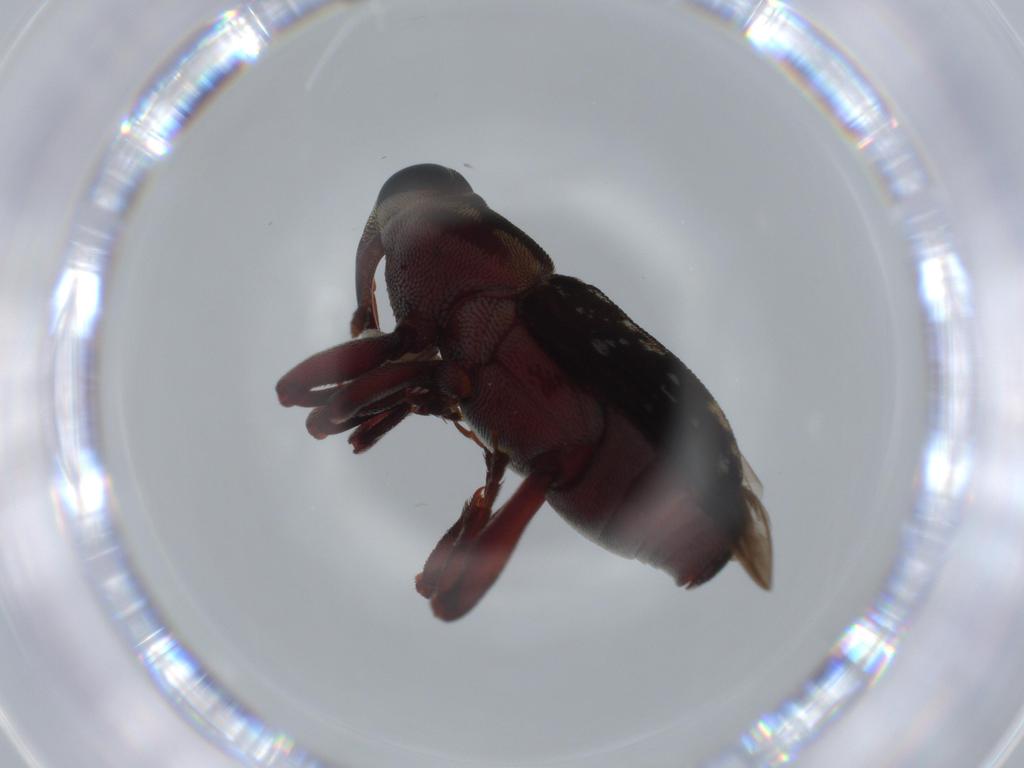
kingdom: Animalia
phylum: Arthropoda
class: Insecta
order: Coleoptera
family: Curculionidae
